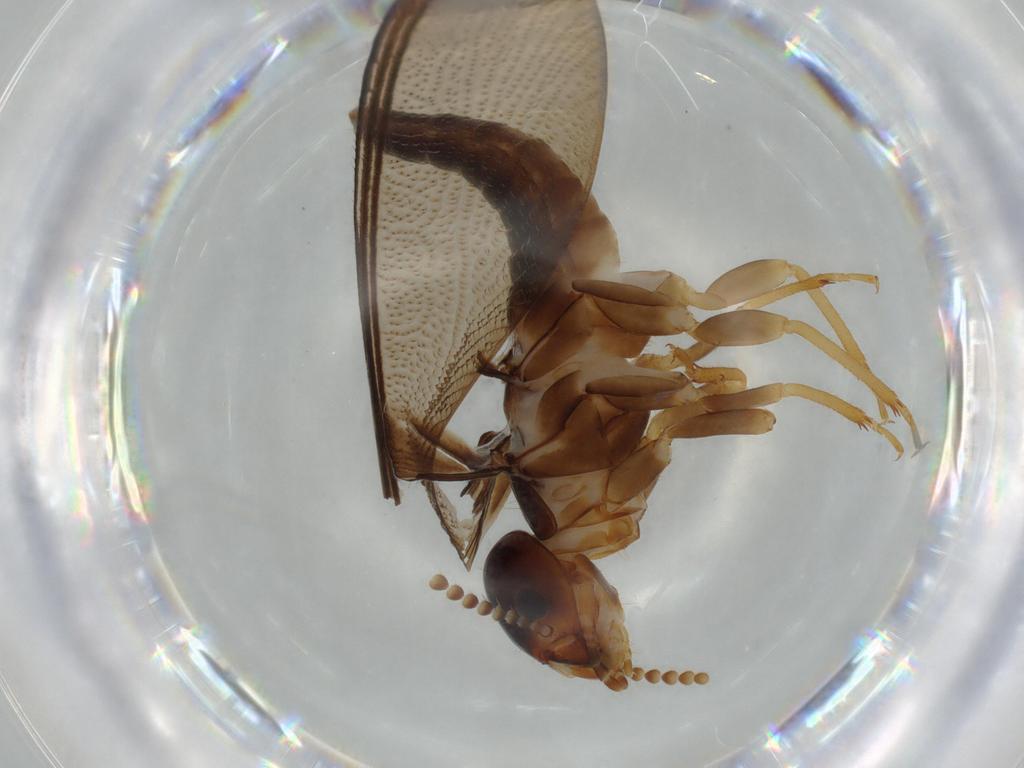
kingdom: Animalia
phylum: Arthropoda
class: Insecta
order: Blattodea
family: Kalotermitidae
